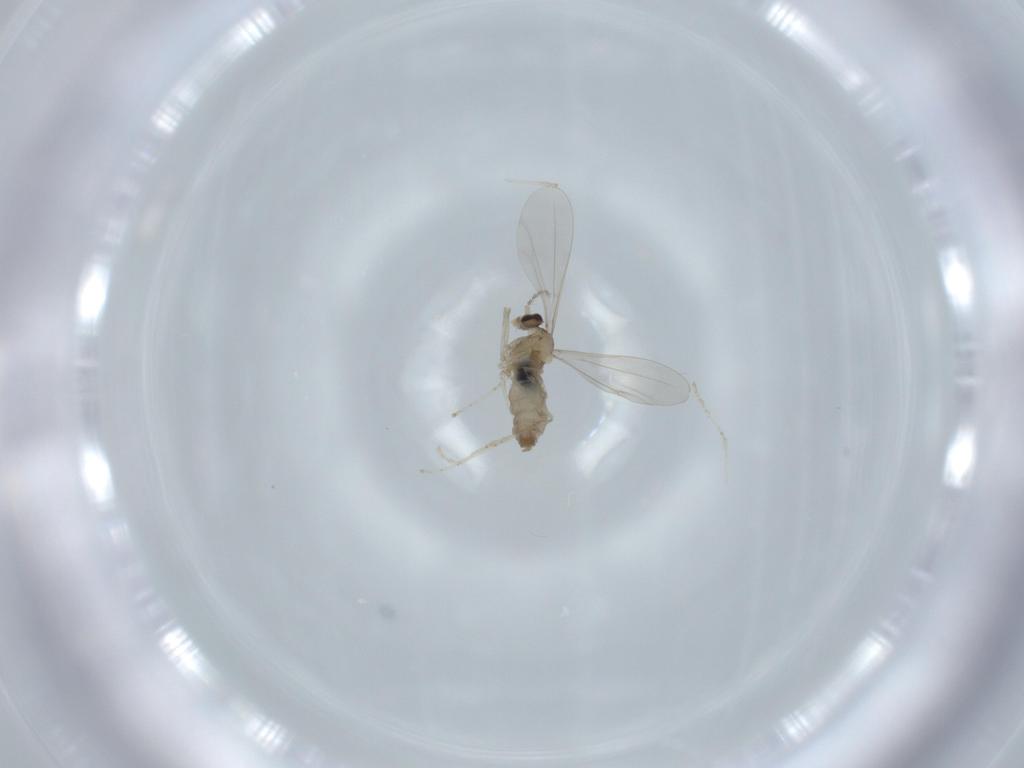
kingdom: Animalia
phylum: Arthropoda
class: Insecta
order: Diptera
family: Cecidomyiidae
